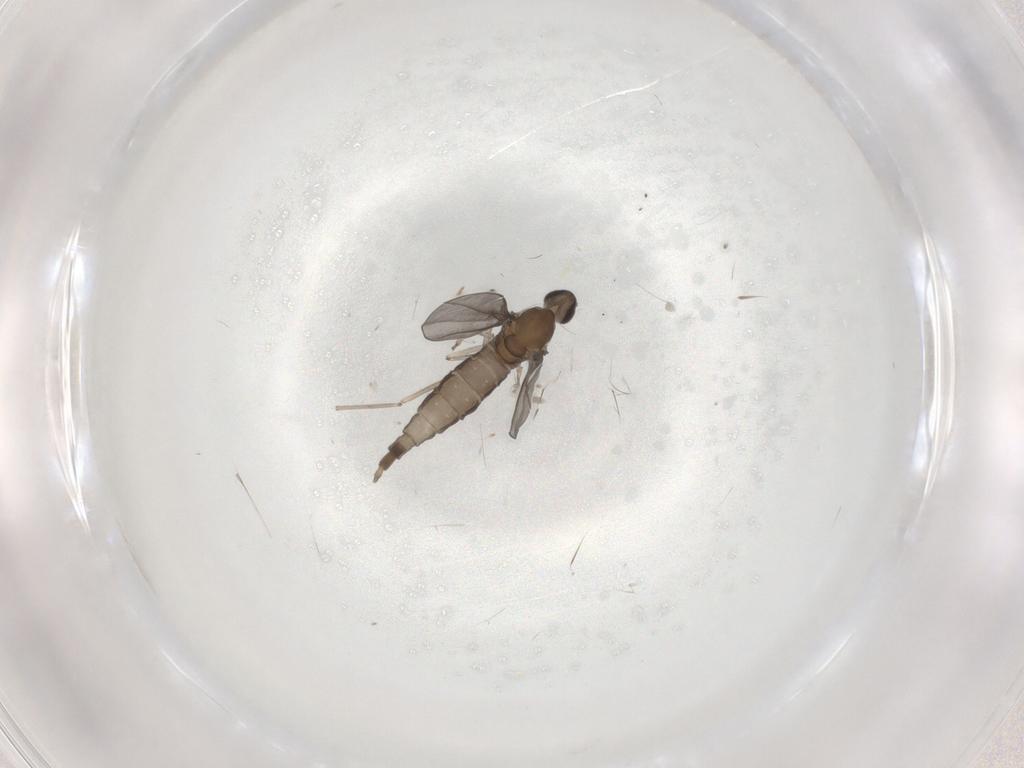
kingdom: Animalia
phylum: Arthropoda
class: Insecta
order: Diptera
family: Cecidomyiidae
